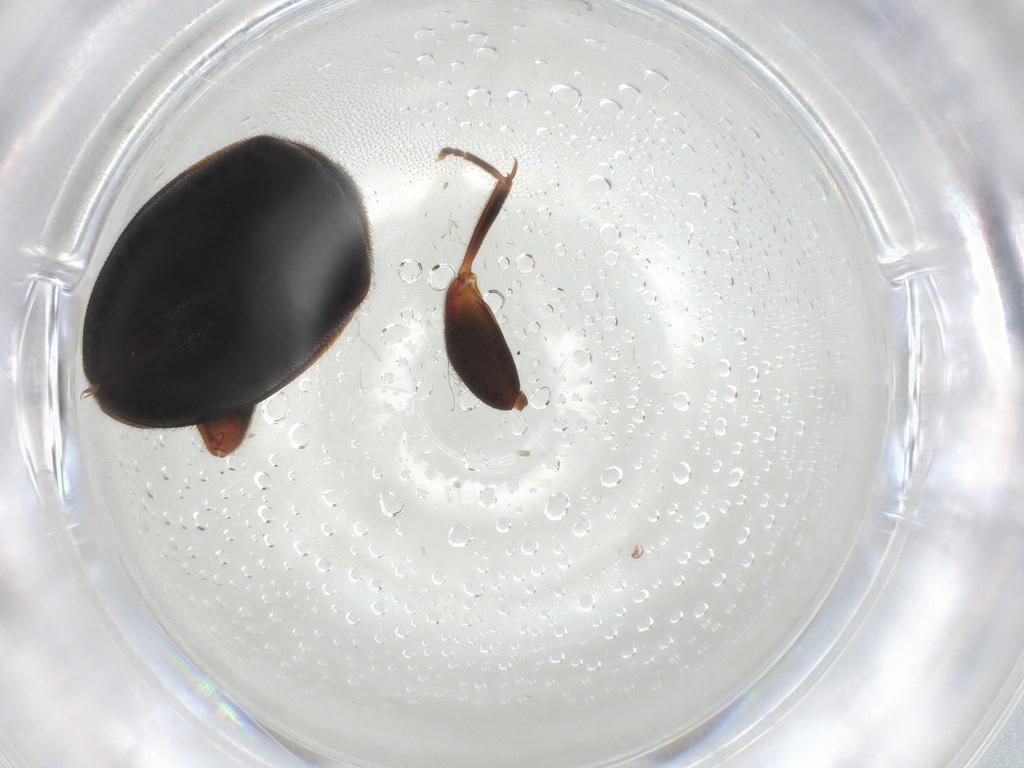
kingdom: Animalia
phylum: Arthropoda
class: Insecta
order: Coleoptera
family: Scirtidae
